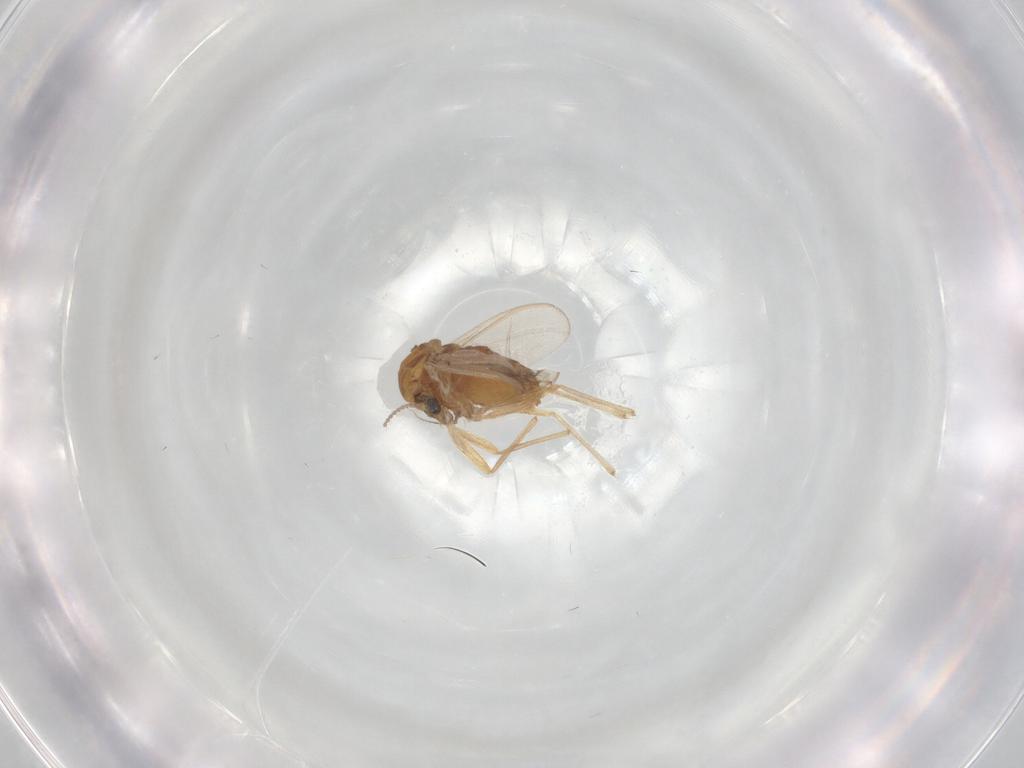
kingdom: Animalia
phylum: Arthropoda
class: Insecta
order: Diptera
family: Chironomidae
